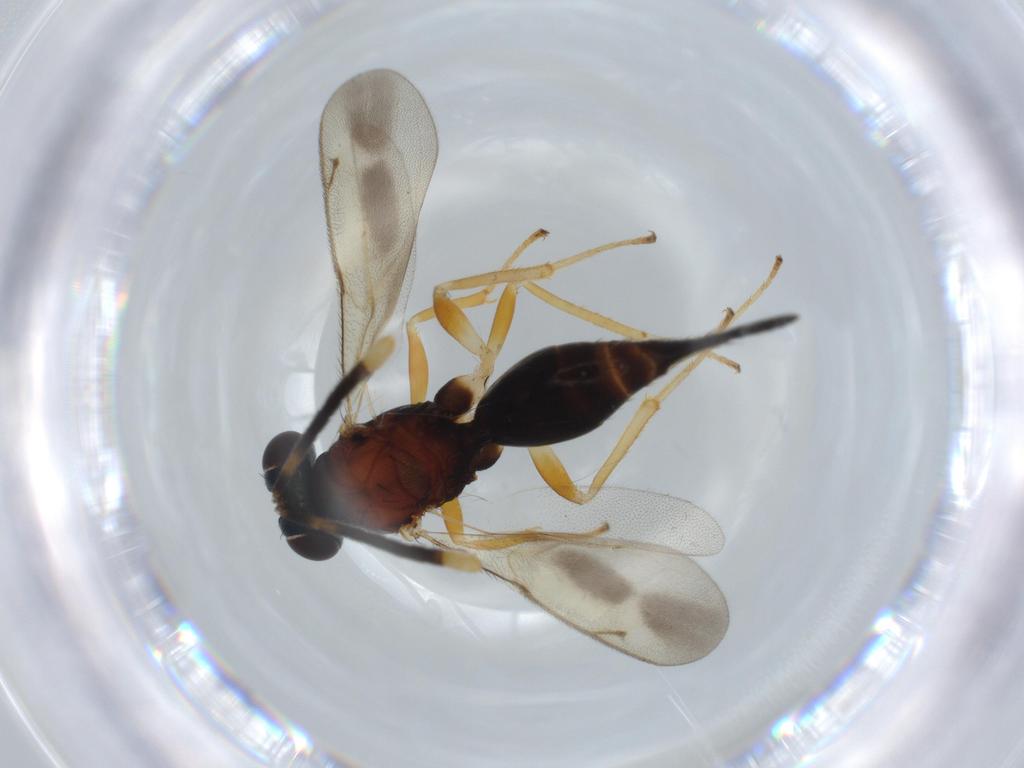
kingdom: Animalia
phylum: Arthropoda
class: Insecta
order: Hymenoptera
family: Diparidae
